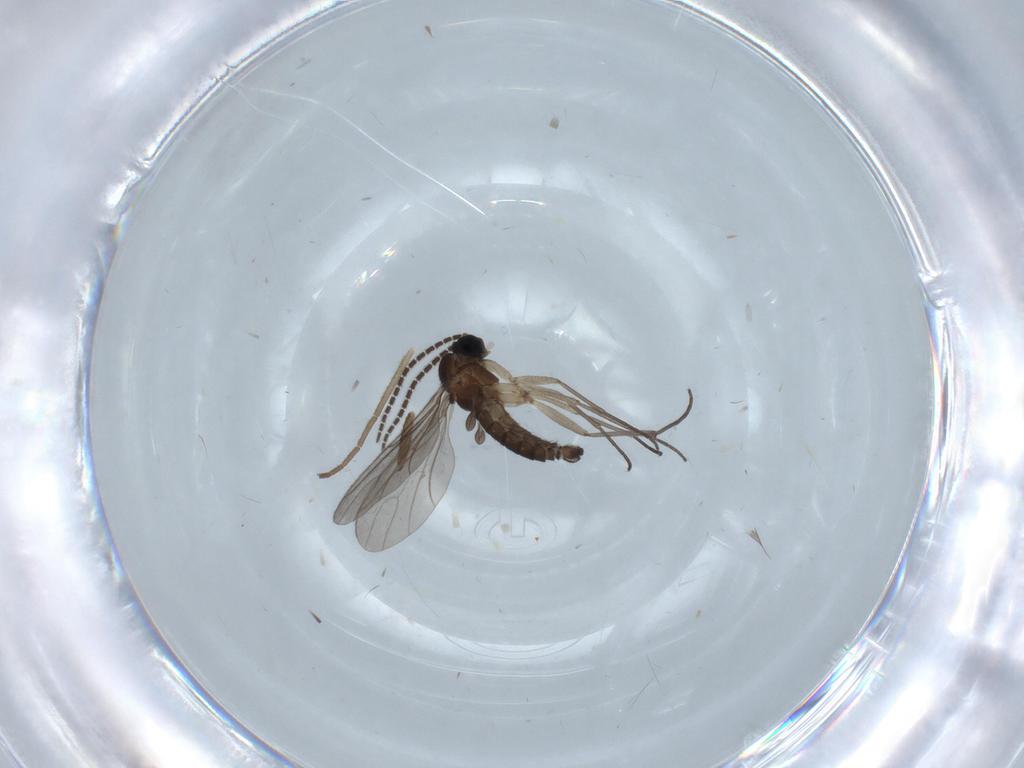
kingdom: Animalia
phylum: Arthropoda
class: Insecta
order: Diptera
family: Sciaridae
